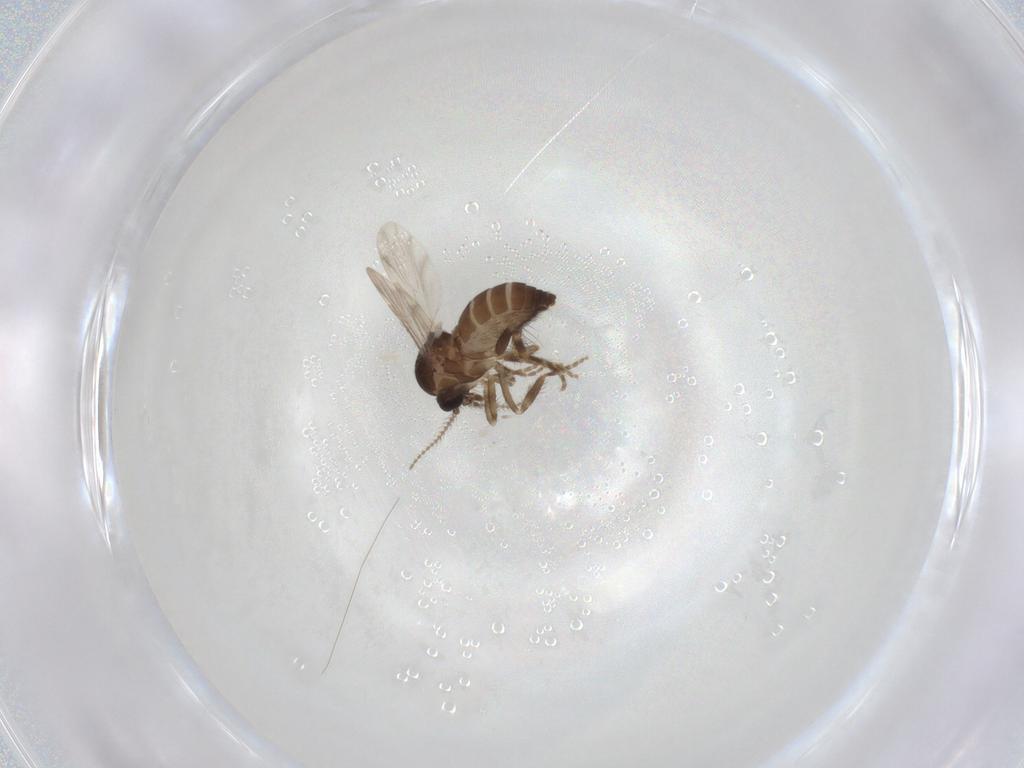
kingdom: Animalia
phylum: Arthropoda
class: Insecta
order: Diptera
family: Ceratopogonidae
